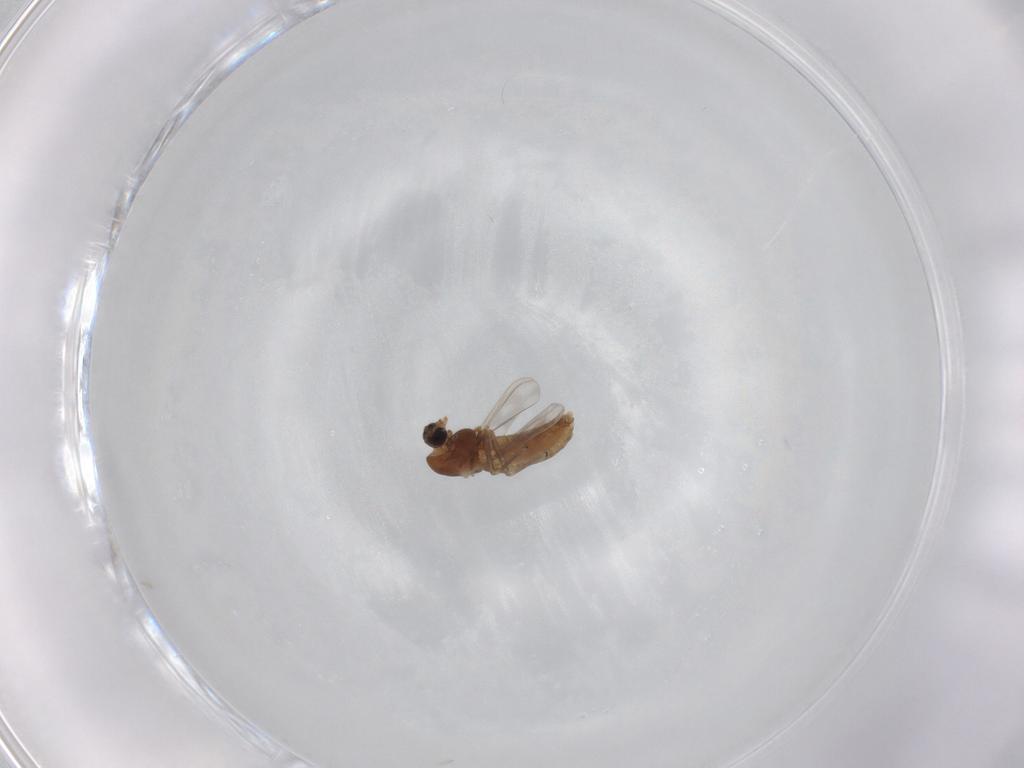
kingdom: Animalia
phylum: Arthropoda
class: Insecta
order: Diptera
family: Chironomidae
